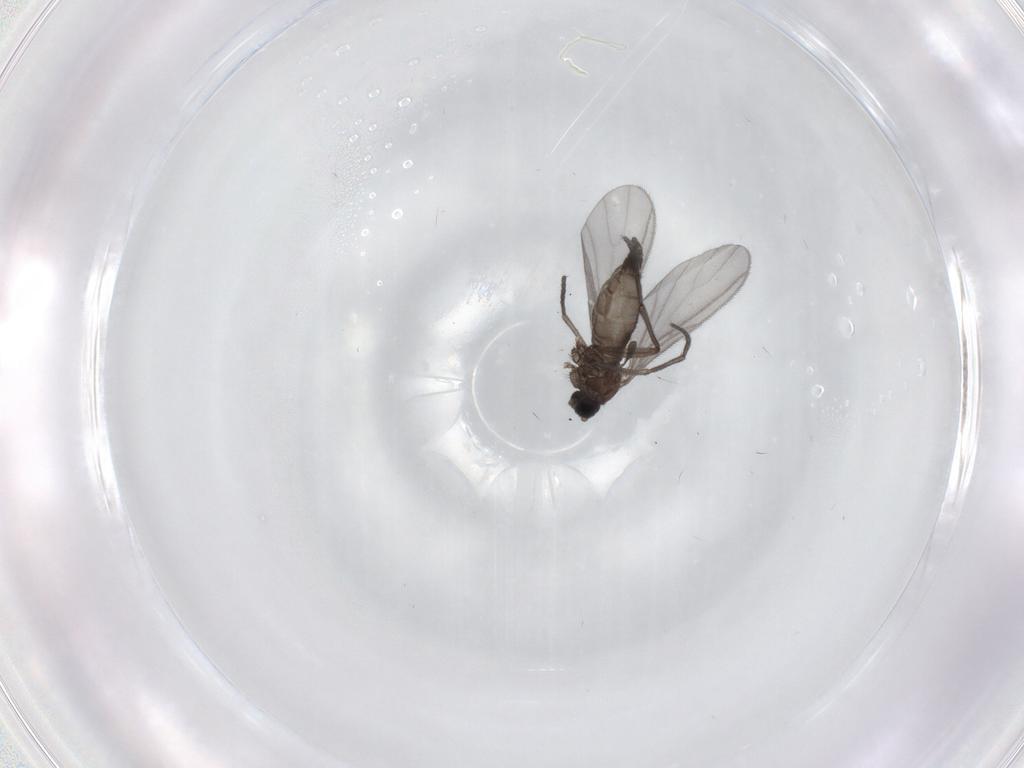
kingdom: Animalia
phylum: Arthropoda
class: Insecta
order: Diptera
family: Sciaridae
